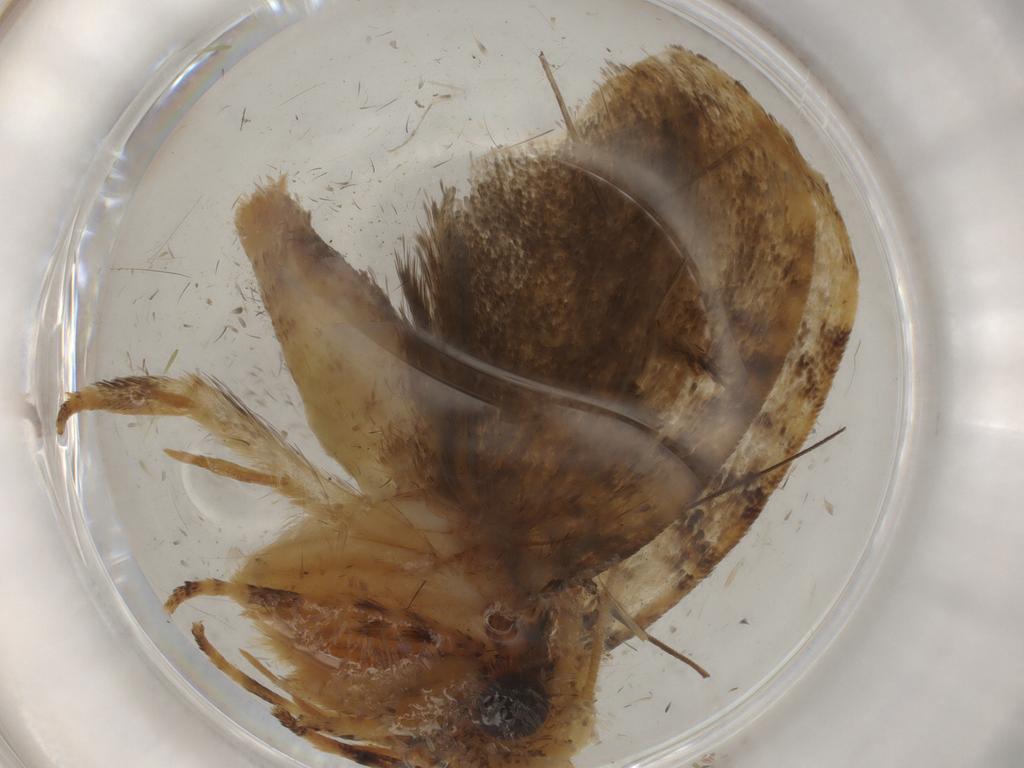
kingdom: Animalia
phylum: Arthropoda
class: Insecta
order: Lepidoptera
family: Tineidae
